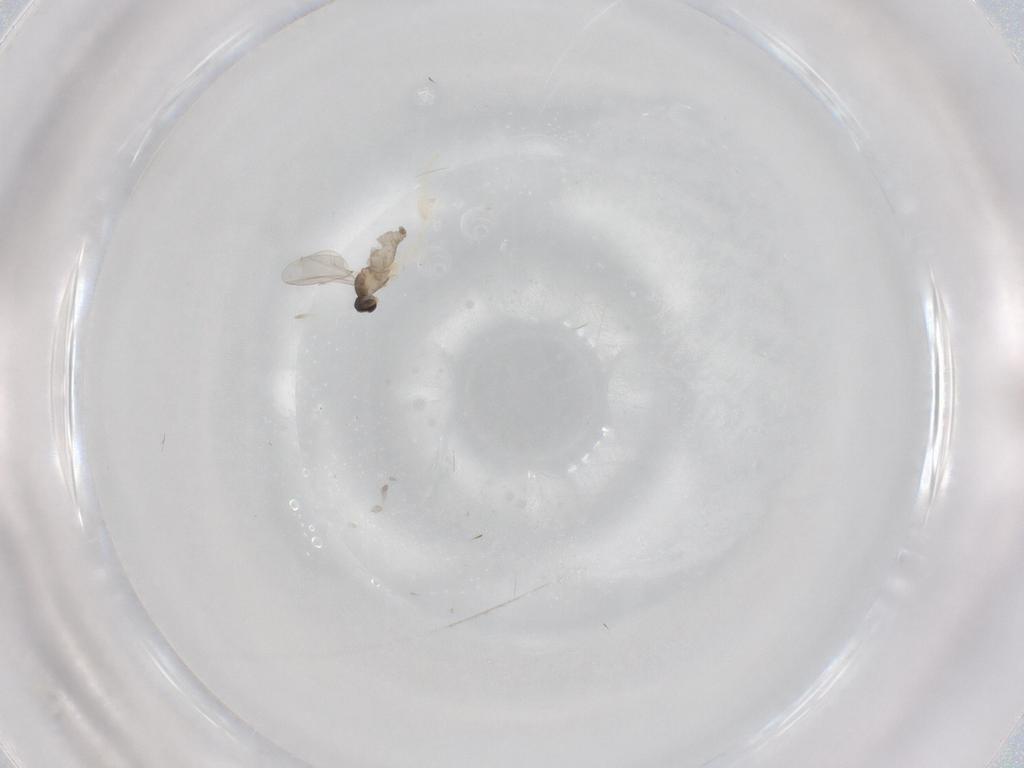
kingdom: Animalia
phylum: Arthropoda
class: Insecta
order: Diptera
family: Cecidomyiidae
